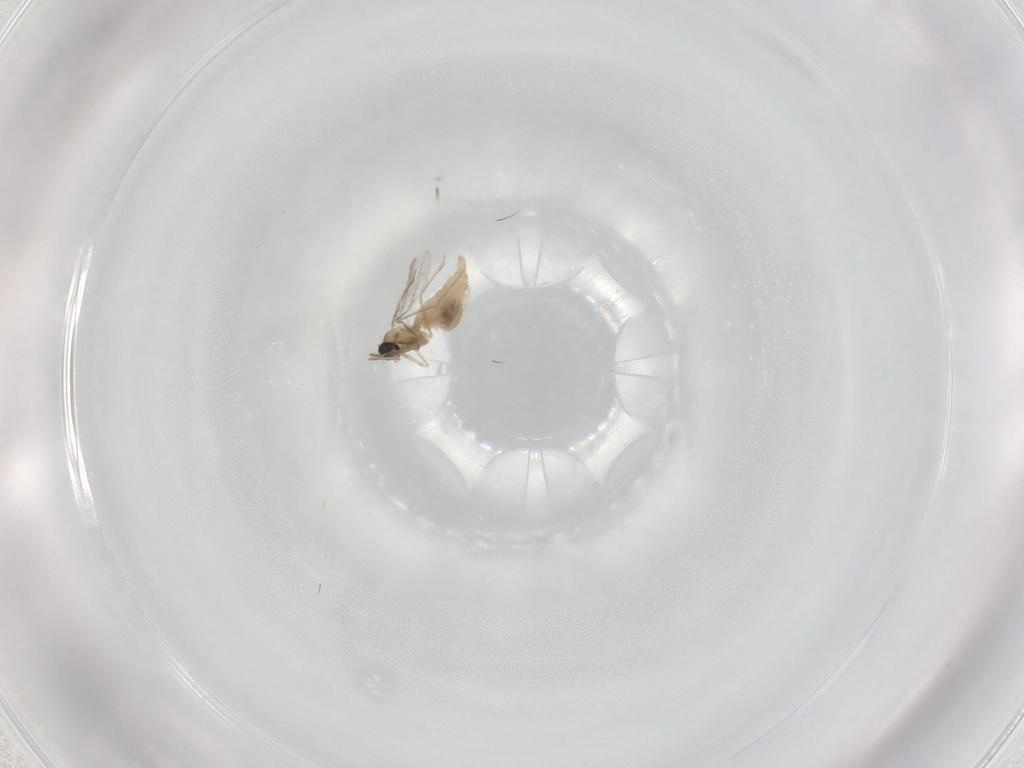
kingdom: Animalia
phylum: Arthropoda
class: Insecta
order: Diptera
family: Cecidomyiidae
